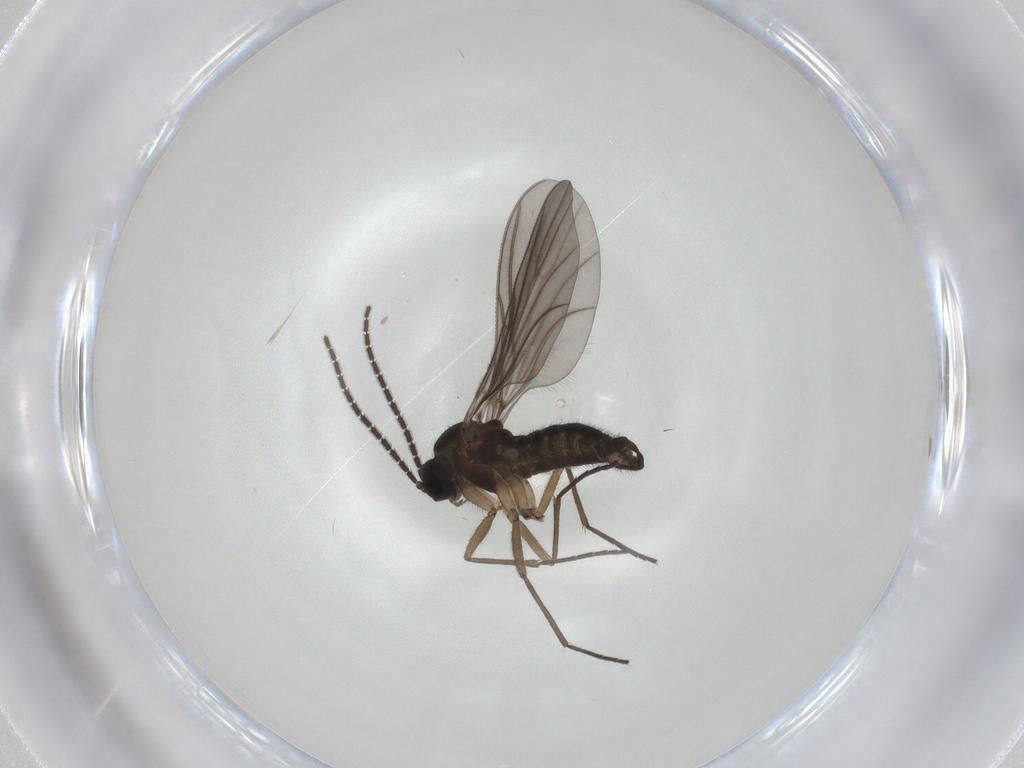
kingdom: Animalia
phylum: Arthropoda
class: Insecta
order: Diptera
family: Sciaridae
